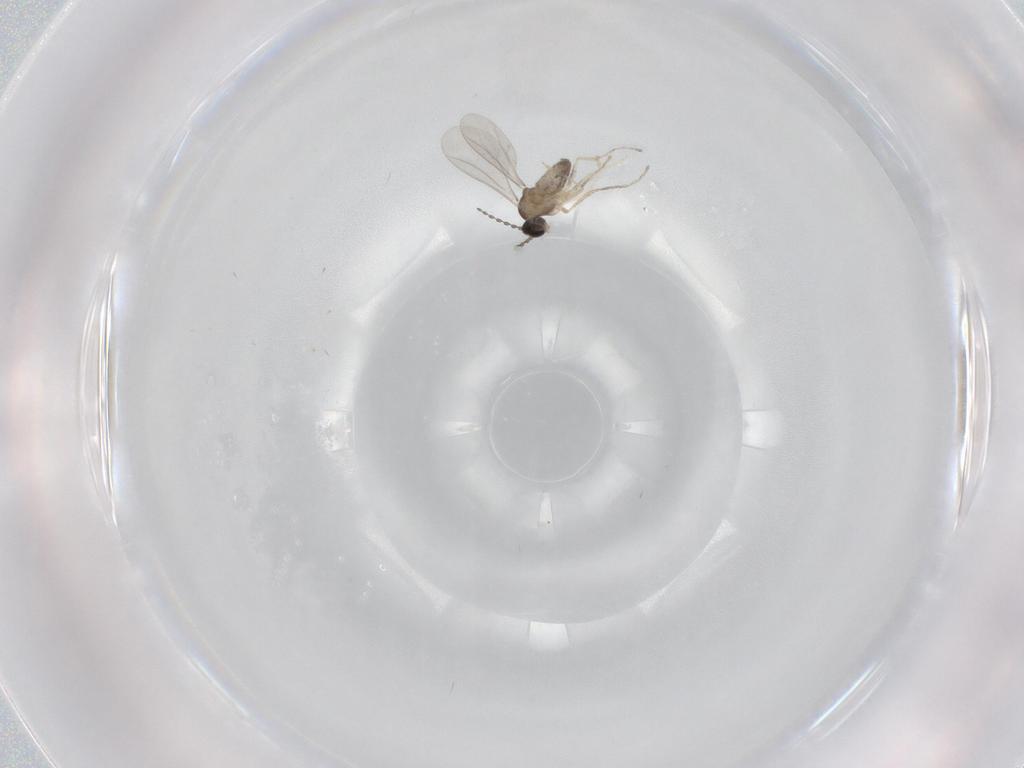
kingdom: Animalia
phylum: Arthropoda
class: Insecta
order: Diptera
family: Cecidomyiidae
